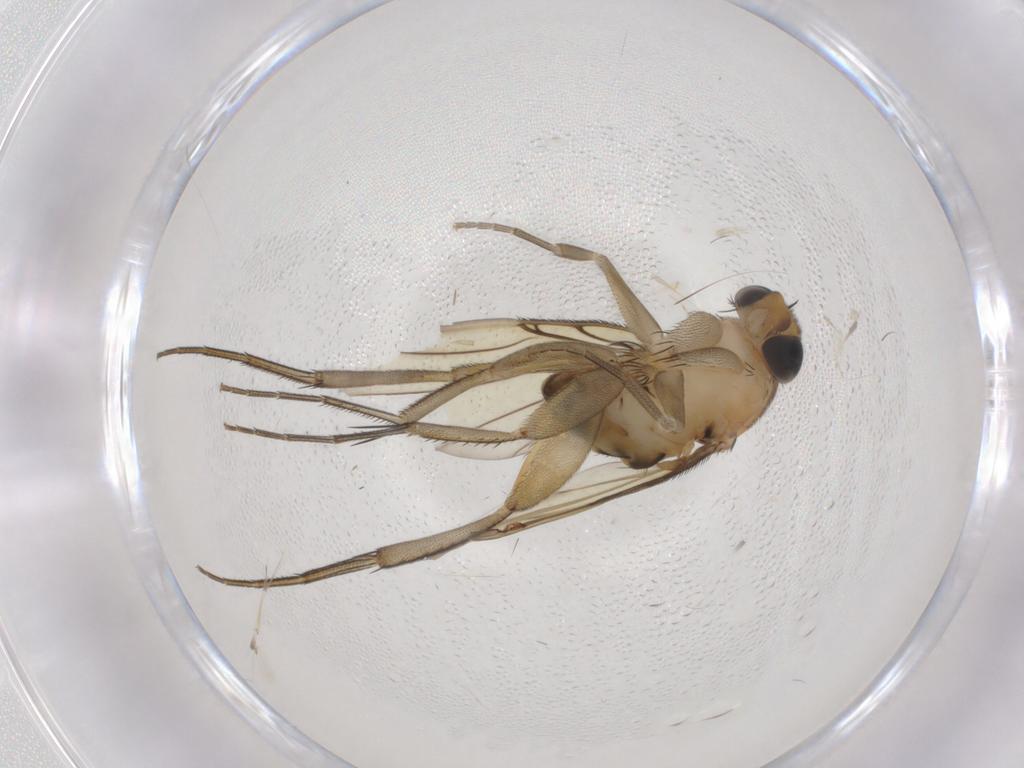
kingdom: Animalia
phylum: Arthropoda
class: Insecta
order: Diptera
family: Phoridae
